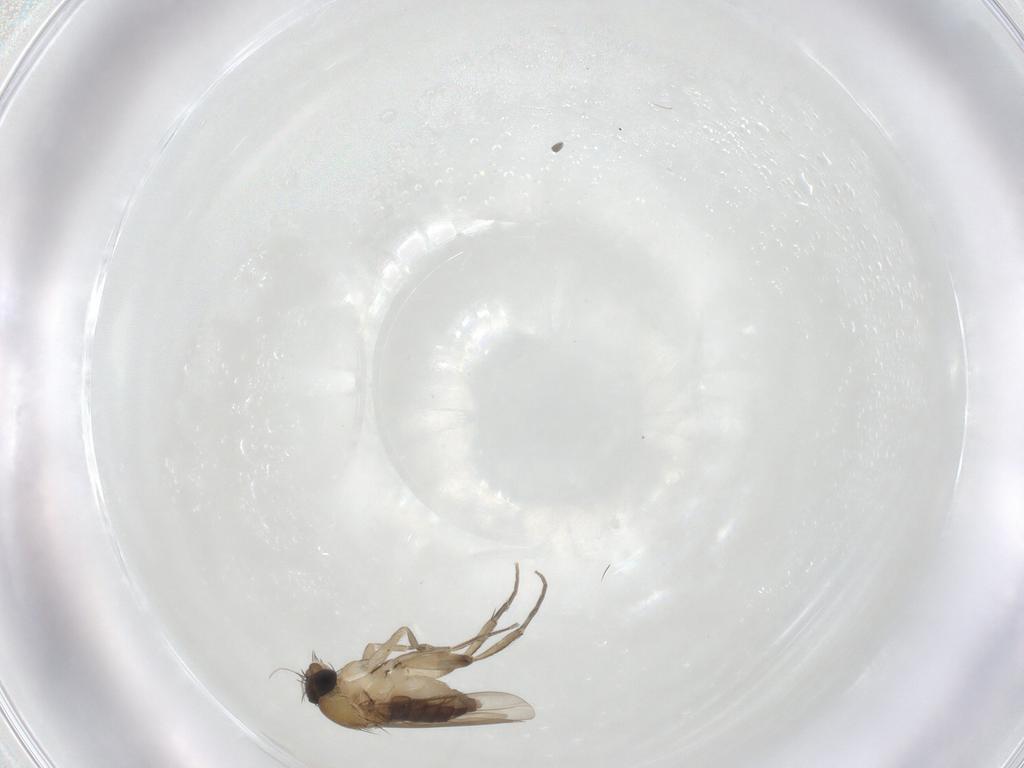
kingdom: Animalia
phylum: Arthropoda
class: Insecta
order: Diptera
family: Phoridae
